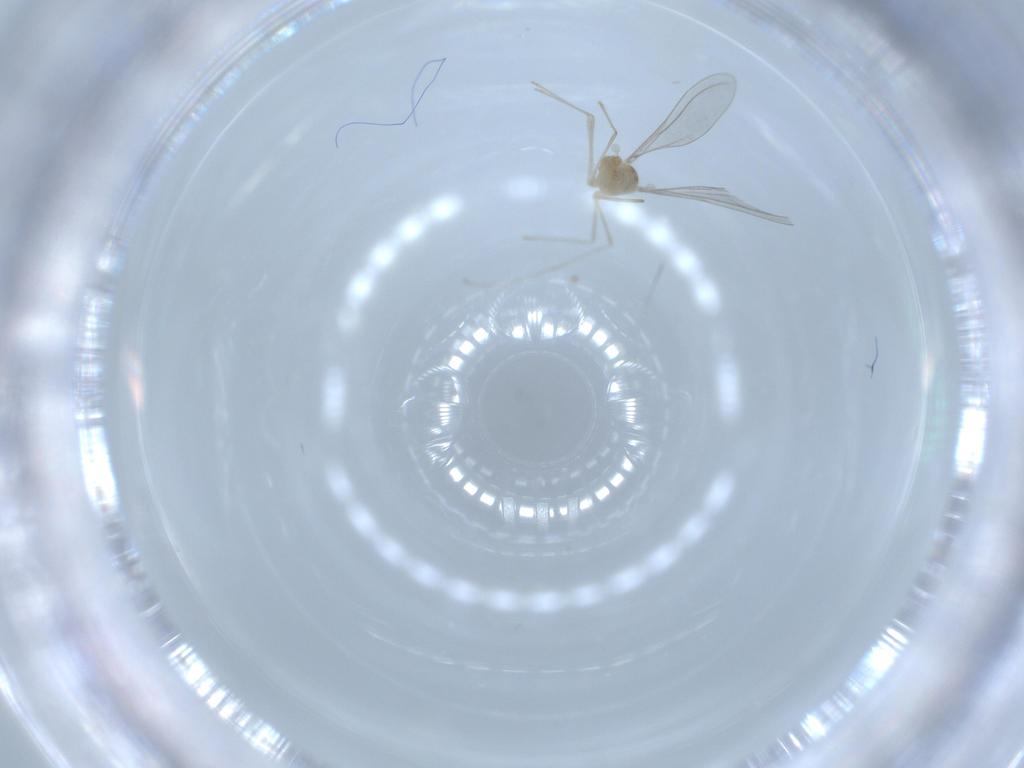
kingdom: Animalia
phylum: Arthropoda
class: Insecta
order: Diptera
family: Cecidomyiidae
